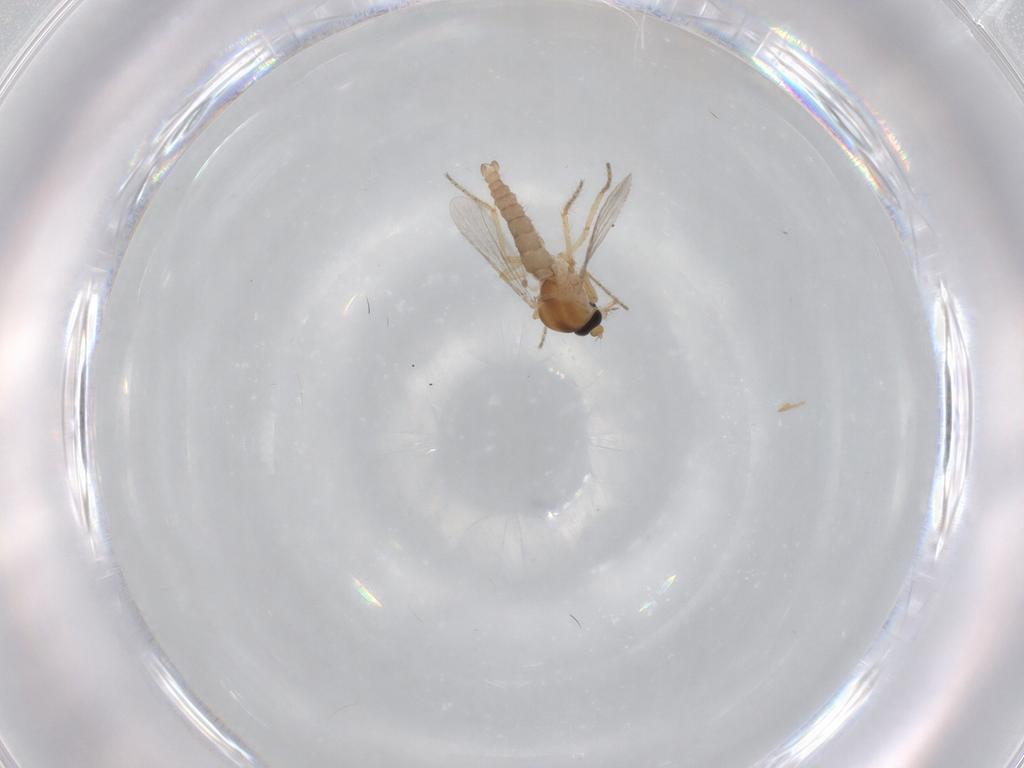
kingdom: Animalia
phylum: Arthropoda
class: Insecta
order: Diptera
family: Ceratopogonidae
